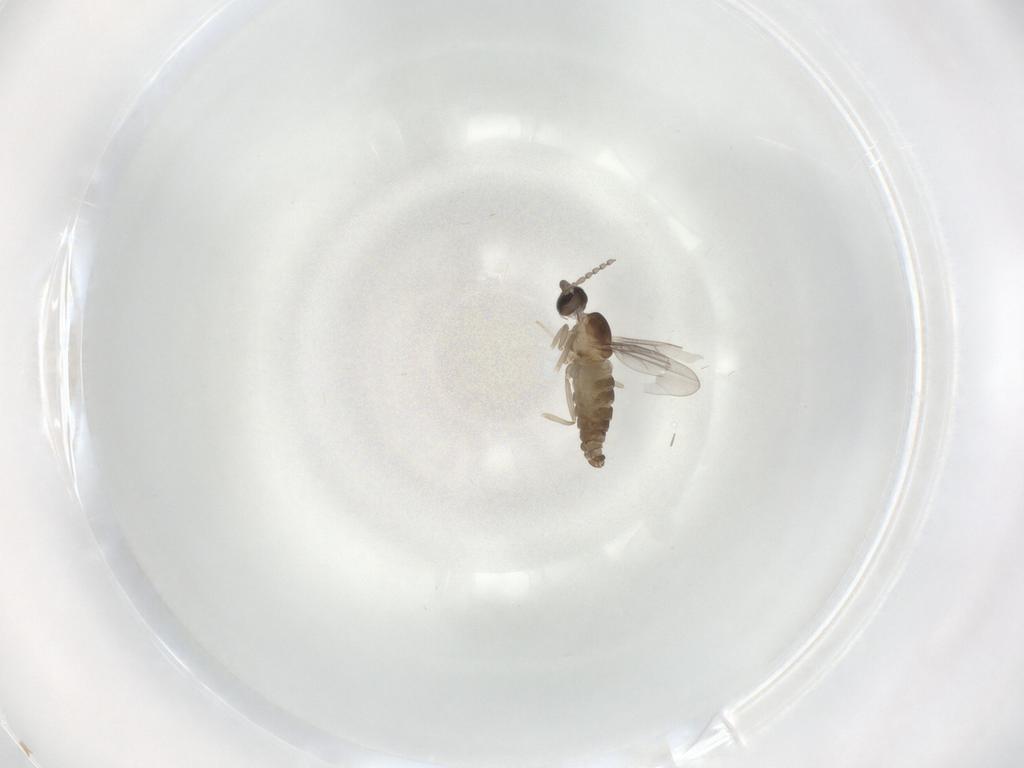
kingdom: Animalia
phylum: Arthropoda
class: Insecta
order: Diptera
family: Cecidomyiidae
